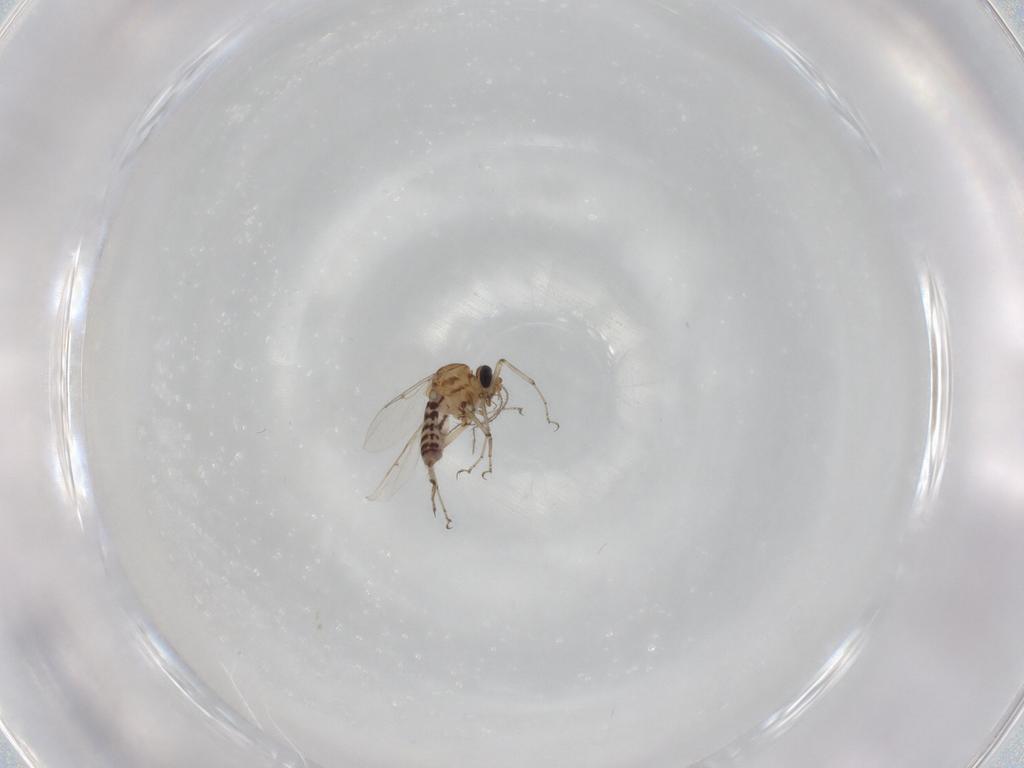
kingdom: Animalia
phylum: Arthropoda
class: Insecta
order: Diptera
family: Ceratopogonidae
